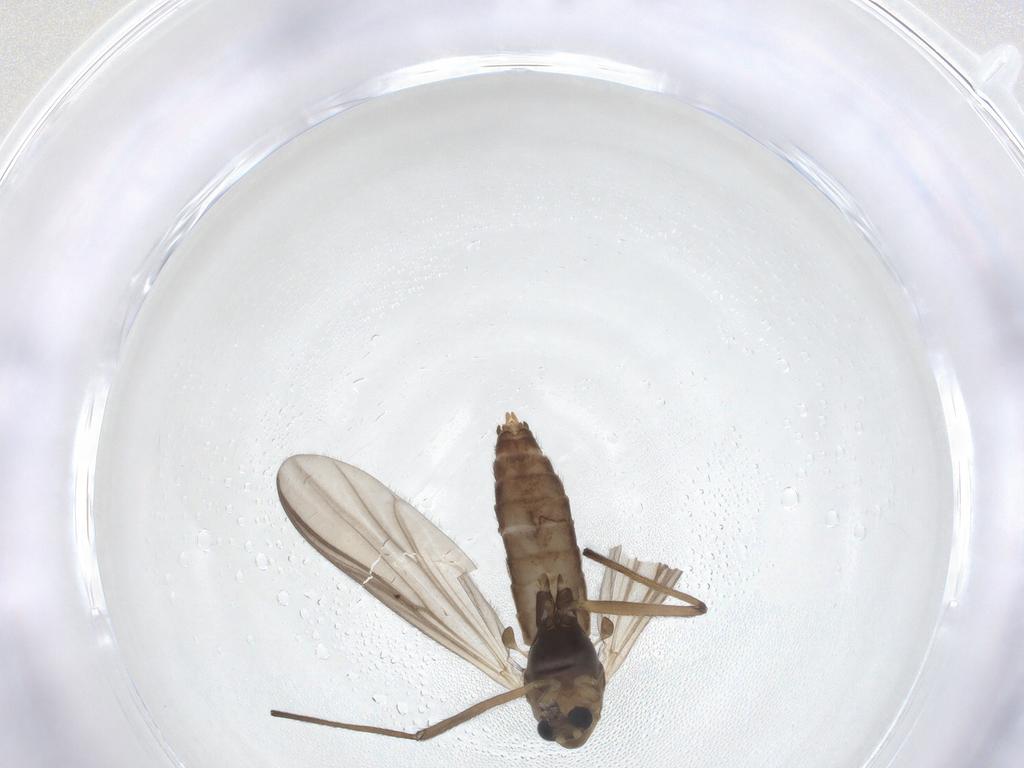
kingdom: Animalia
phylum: Arthropoda
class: Insecta
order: Diptera
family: Chironomidae
